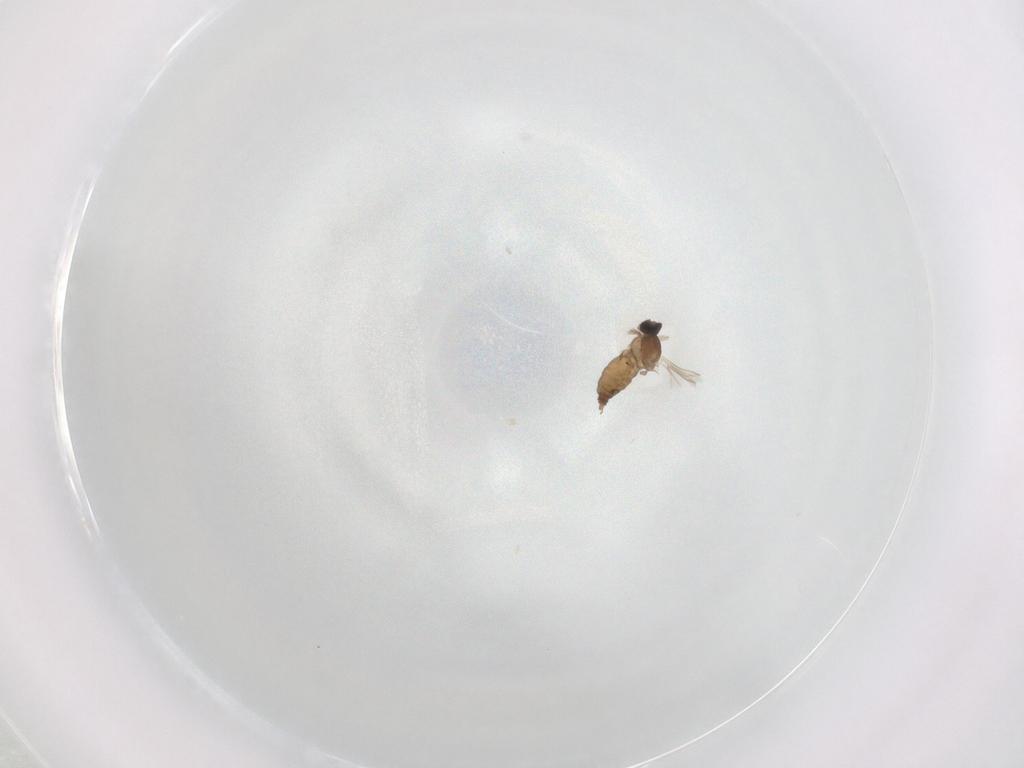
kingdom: Animalia
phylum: Arthropoda
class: Insecta
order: Diptera
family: Cecidomyiidae
